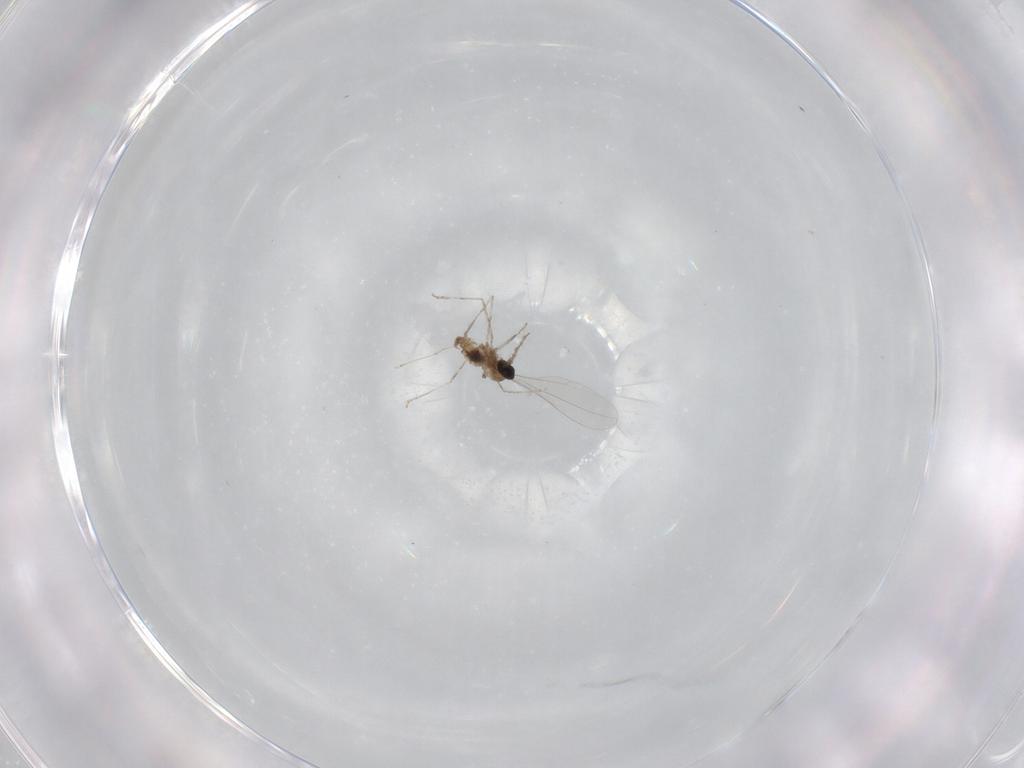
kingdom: Animalia
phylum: Arthropoda
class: Insecta
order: Diptera
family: Cecidomyiidae
